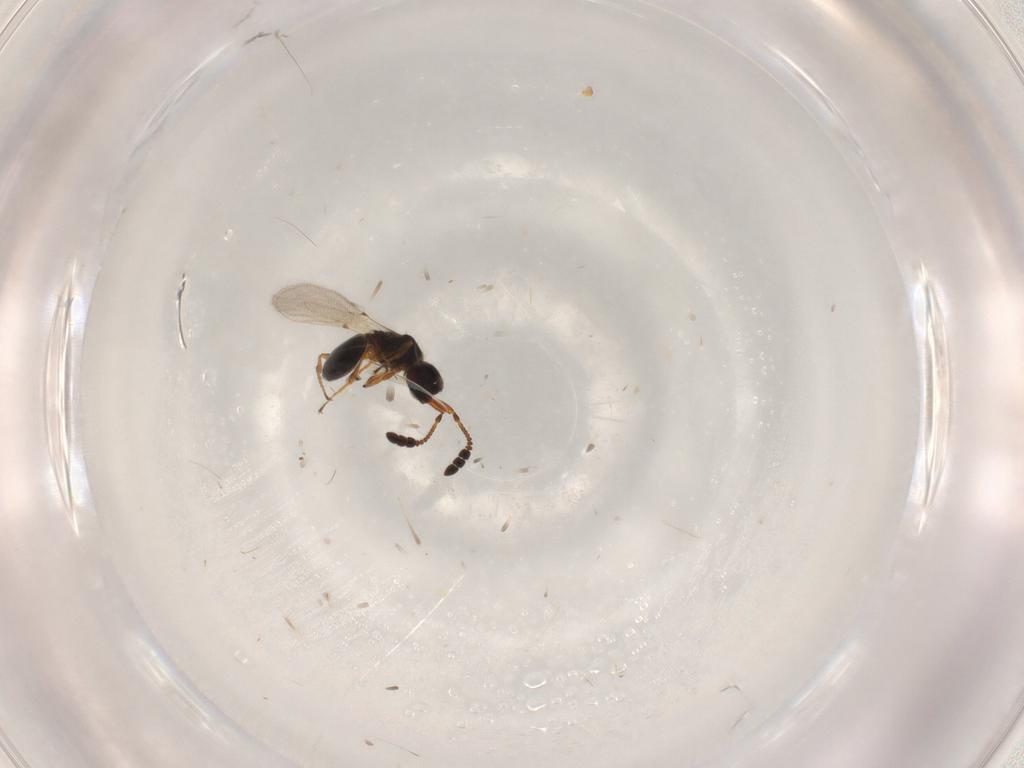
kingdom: Animalia
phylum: Arthropoda
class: Insecta
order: Hymenoptera
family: Diapriidae
